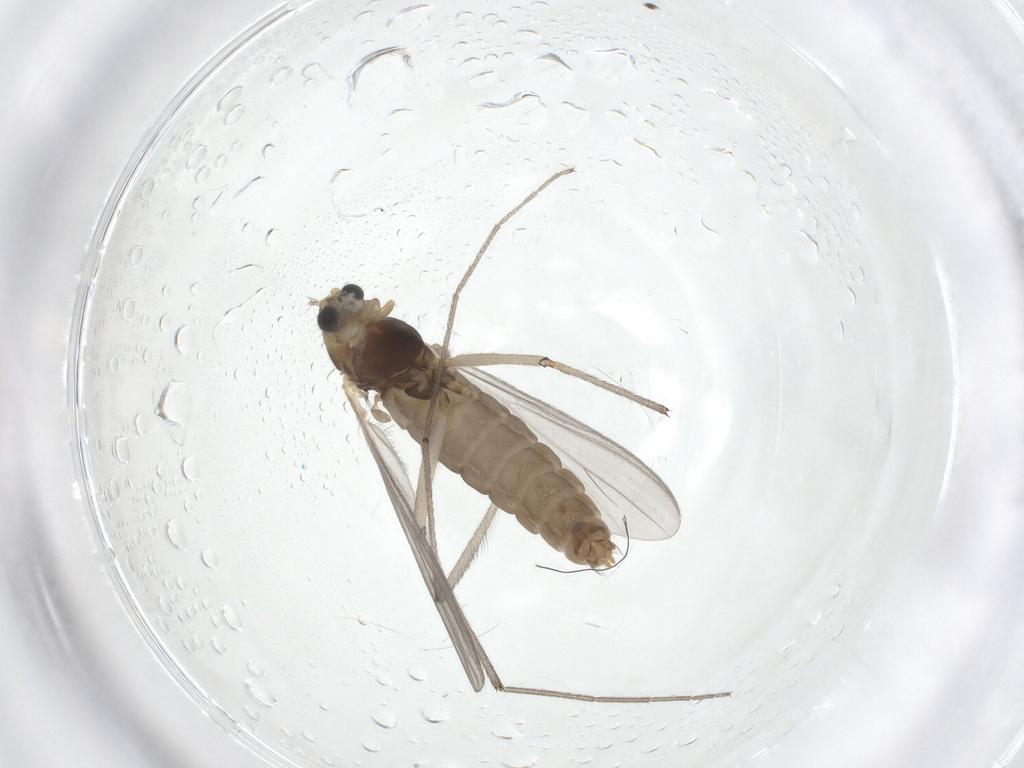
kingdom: Animalia
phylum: Arthropoda
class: Insecta
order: Diptera
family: Chironomidae
